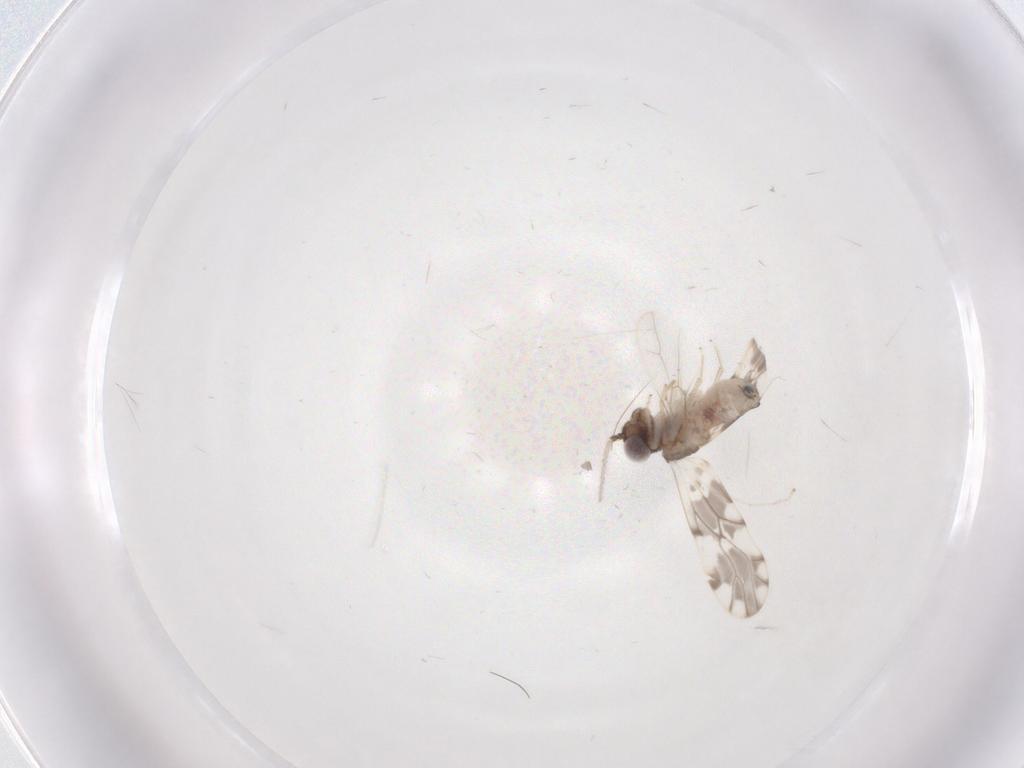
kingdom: Animalia
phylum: Arthropoda
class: Insecta
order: Psocodea
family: Ectopsocidae
